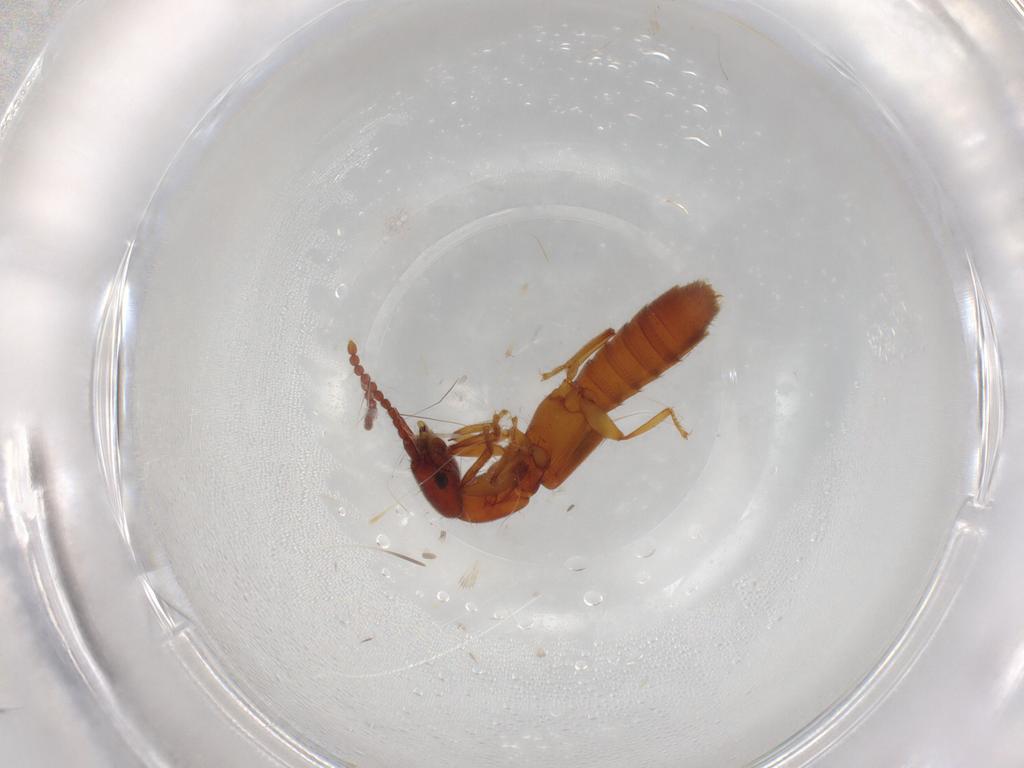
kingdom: Animalia
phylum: Arthropoda
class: Insecta
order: Coleoptera
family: Staphylinidae
